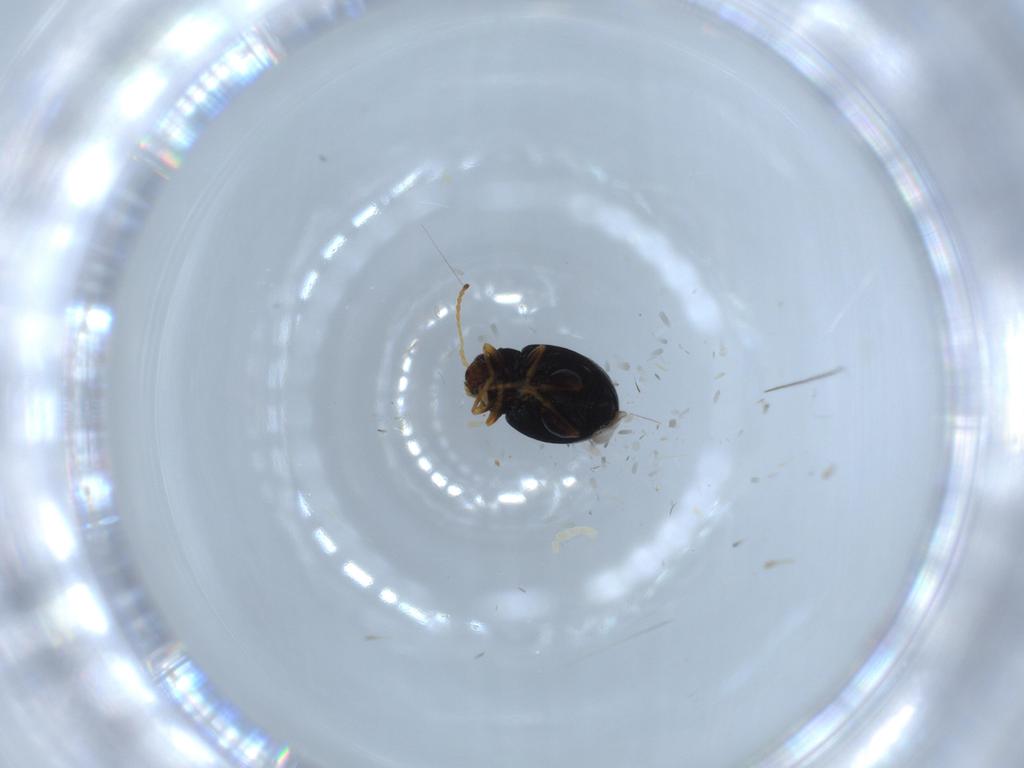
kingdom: Animalia
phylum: Arthropoda
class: Insecta
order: Coleoptera
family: Chrysomelidae
